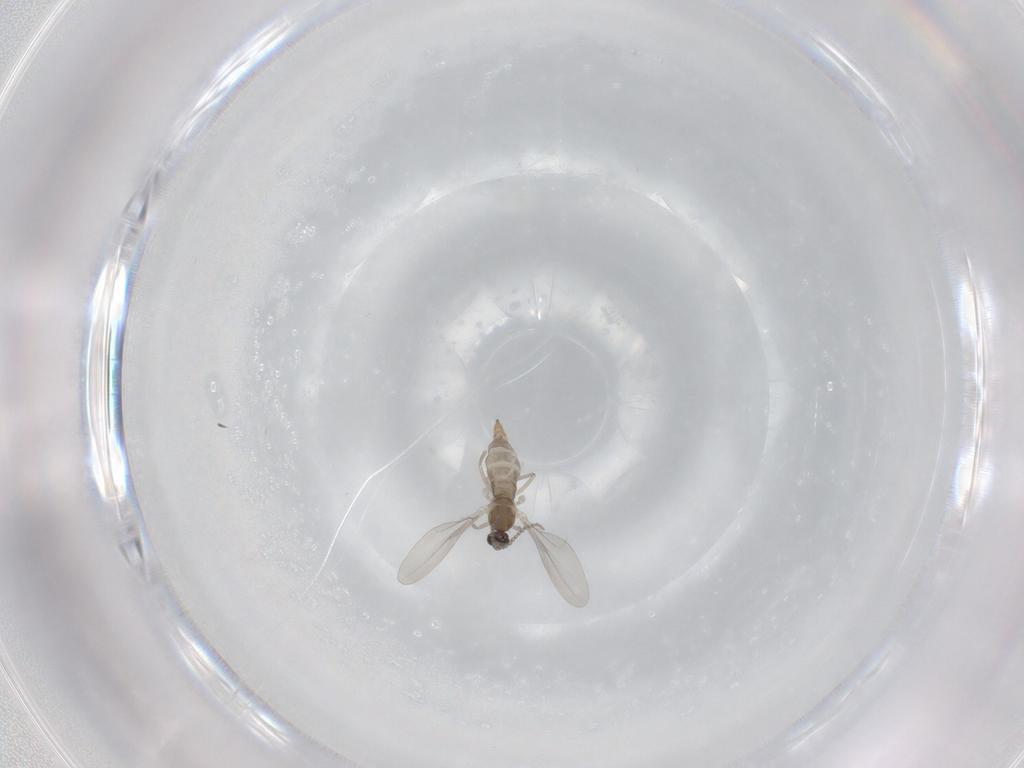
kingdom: Animalia
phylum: Arthropoda
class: Insecta
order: Diptera
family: Cecidomyiidae
